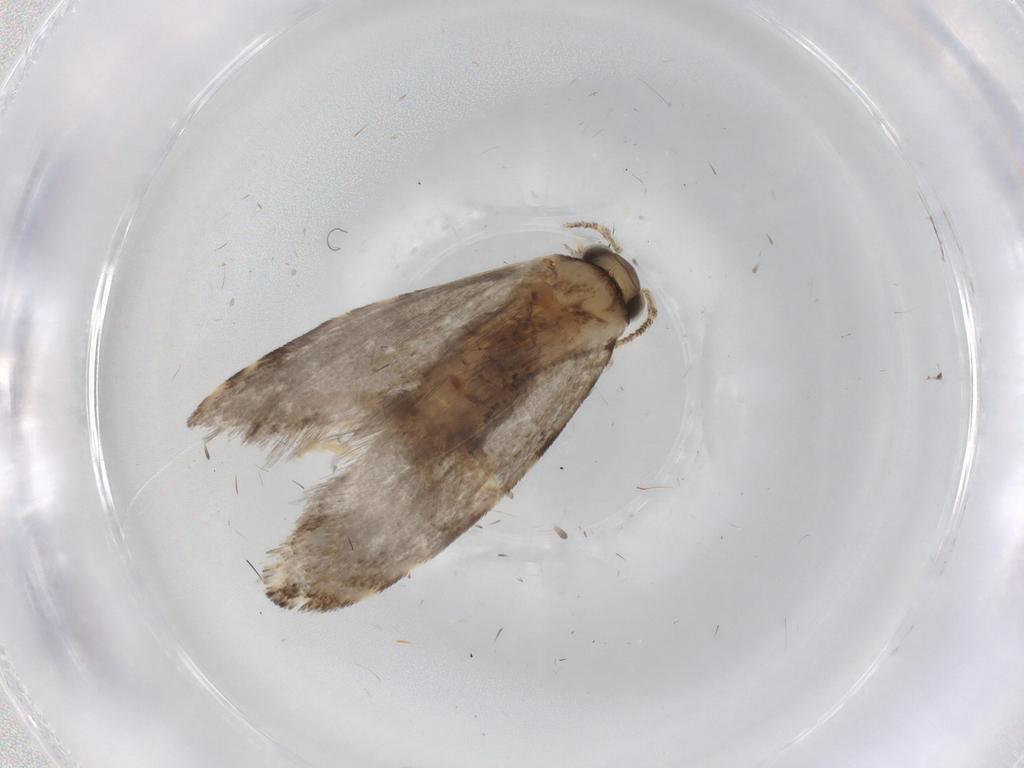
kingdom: Animalia
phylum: Arthropoda
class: Insecta
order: Lepidoptera
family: Tineidae
